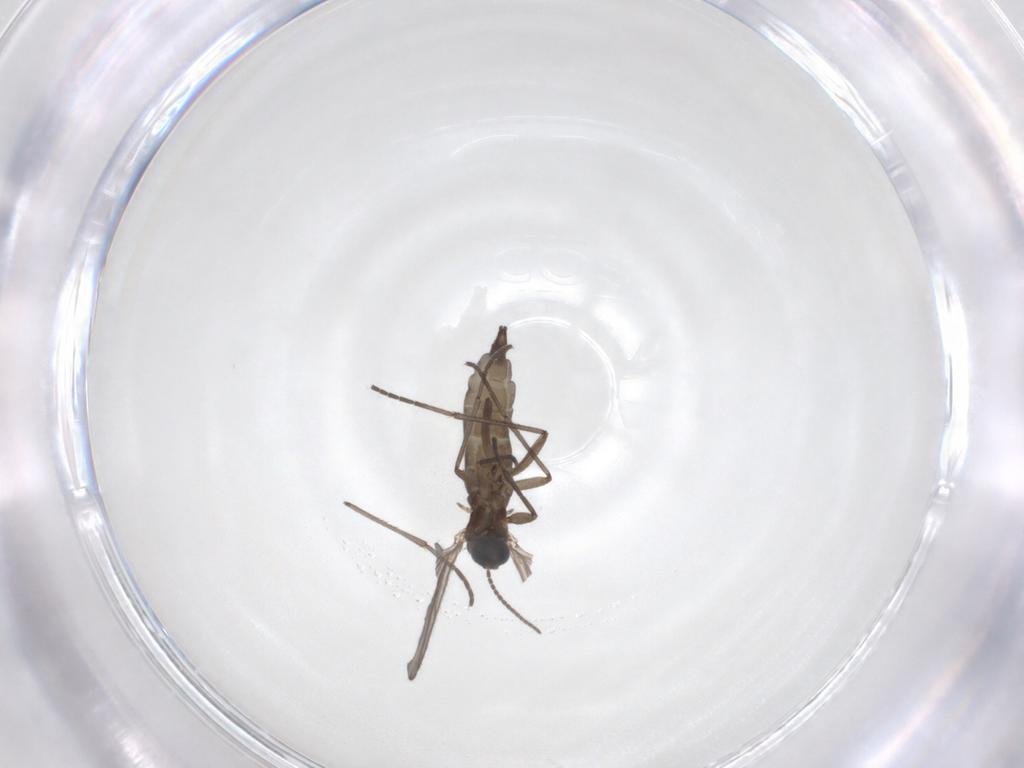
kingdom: Animalia
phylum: Arthropoda
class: Insecta
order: Diptera
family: Sciaridae
